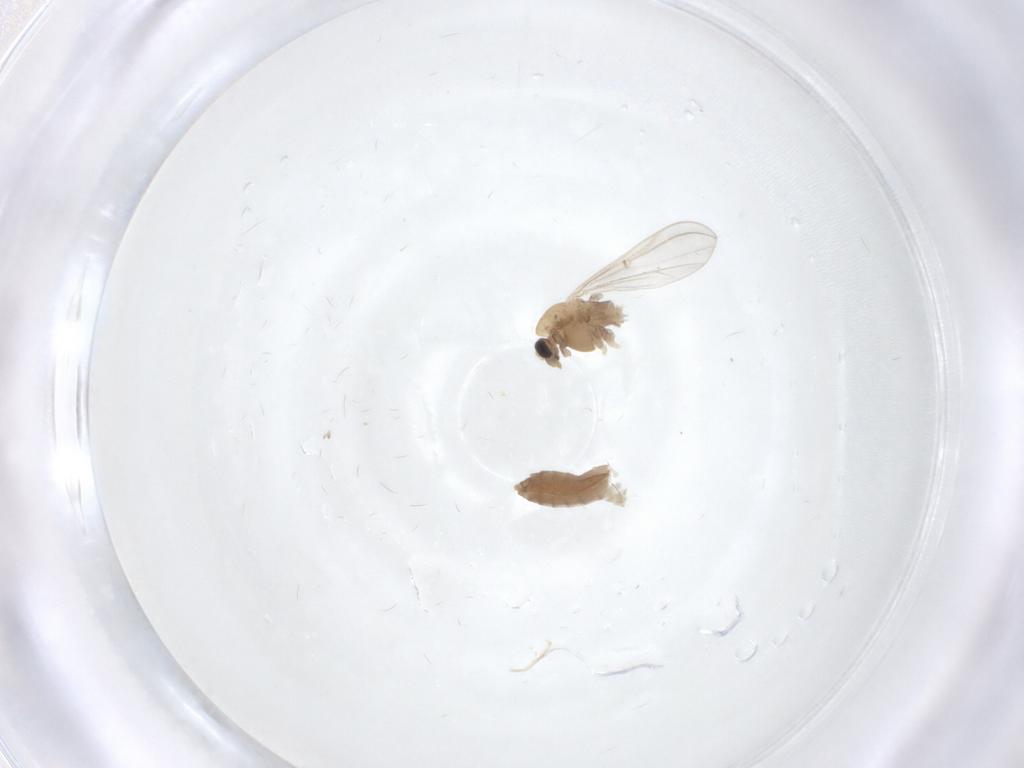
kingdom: Animalia
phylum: Arthropoda
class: Insecta
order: Diptera
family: Chironomidae
